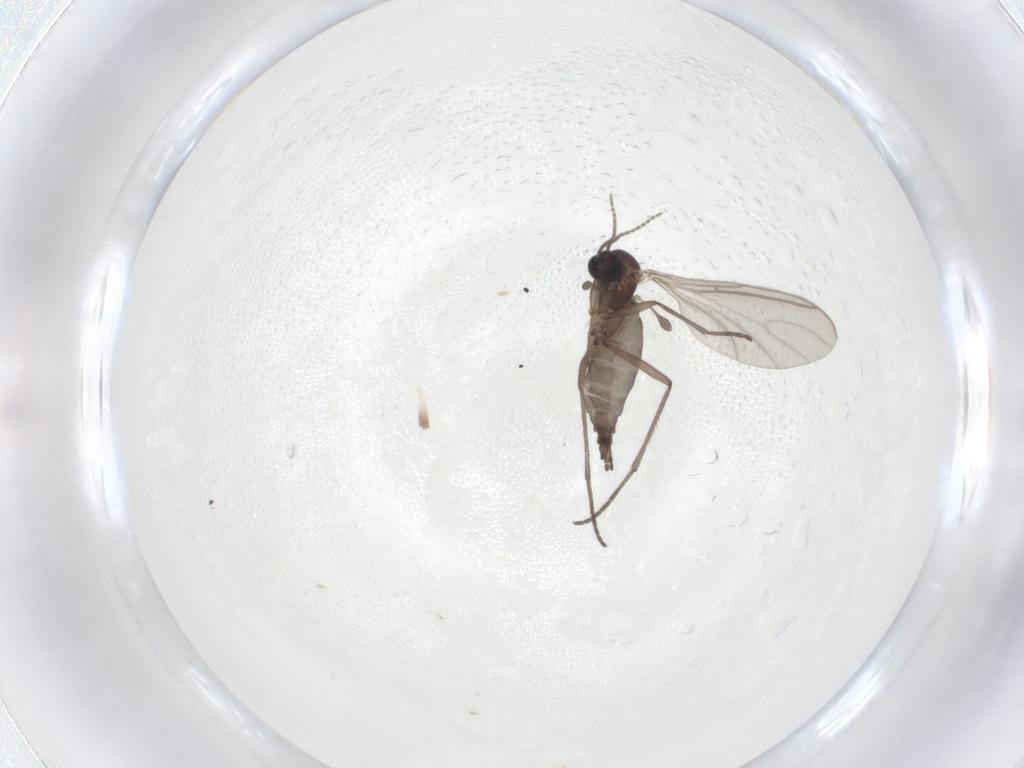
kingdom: Animalia
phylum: Arthropoda
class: Insecta
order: Diptera
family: Sciaridae
